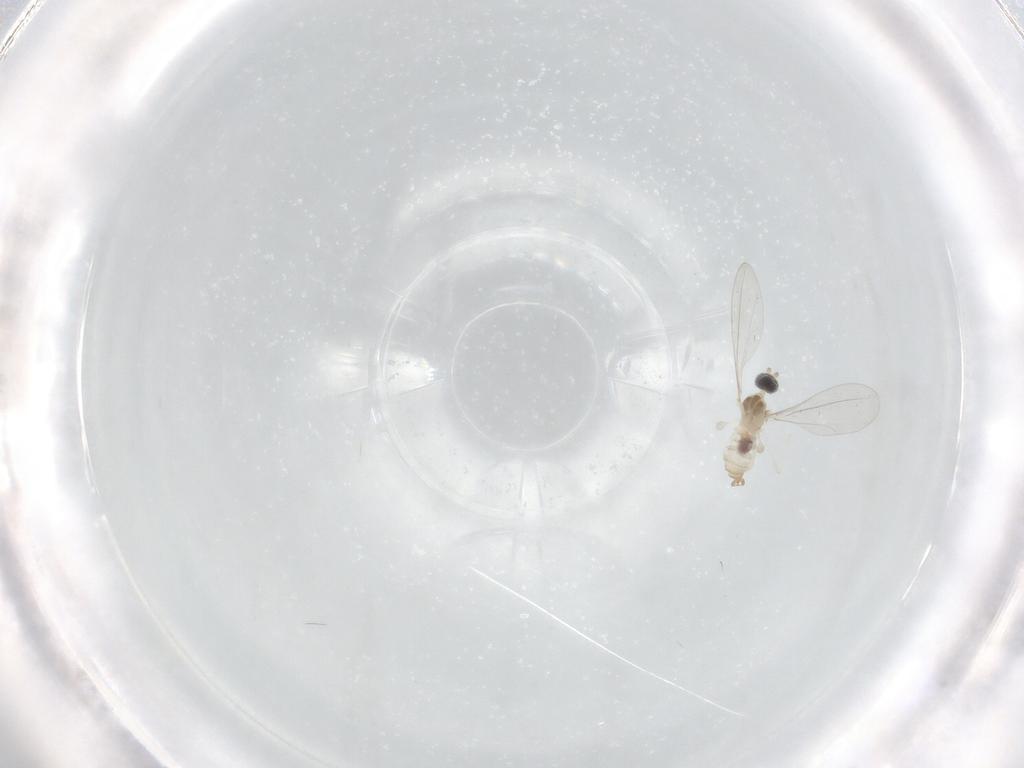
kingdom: Animalia
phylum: Arthropoda
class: Insecta
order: Diptera
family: Cecidomyiidae
